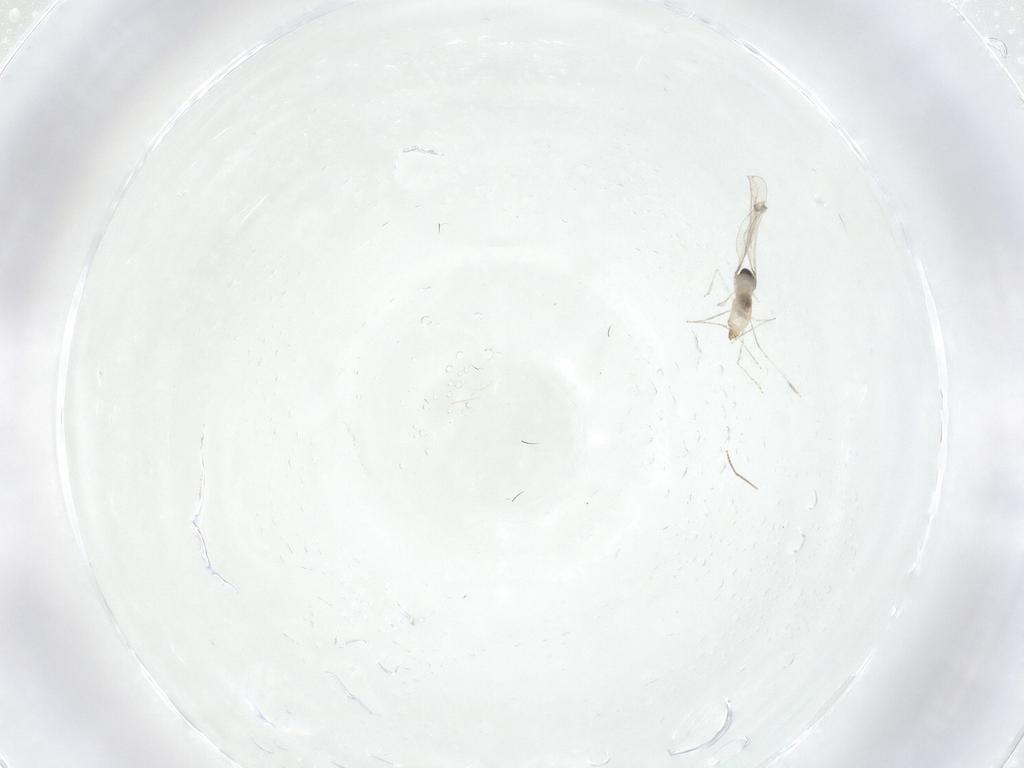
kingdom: Animalia
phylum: Arthropoda
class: Insecta
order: Diptera
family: Chironomidae
